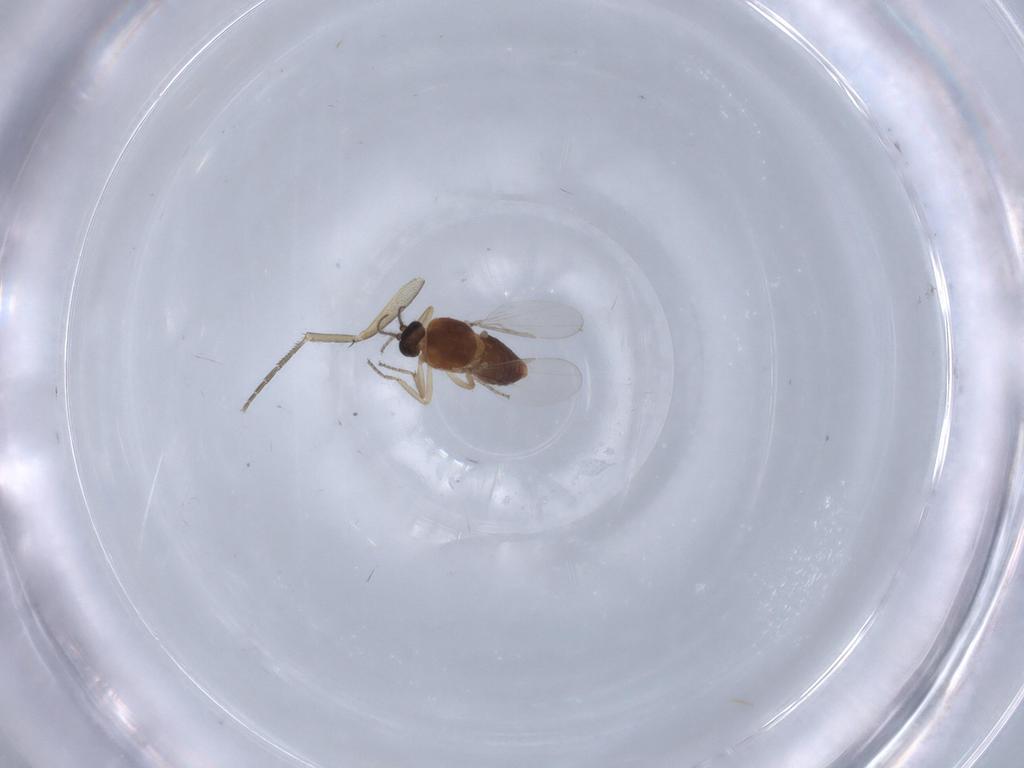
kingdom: Animalia
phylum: Arthropoda
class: Insecta
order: Diptera
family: Ceratopogonidae
